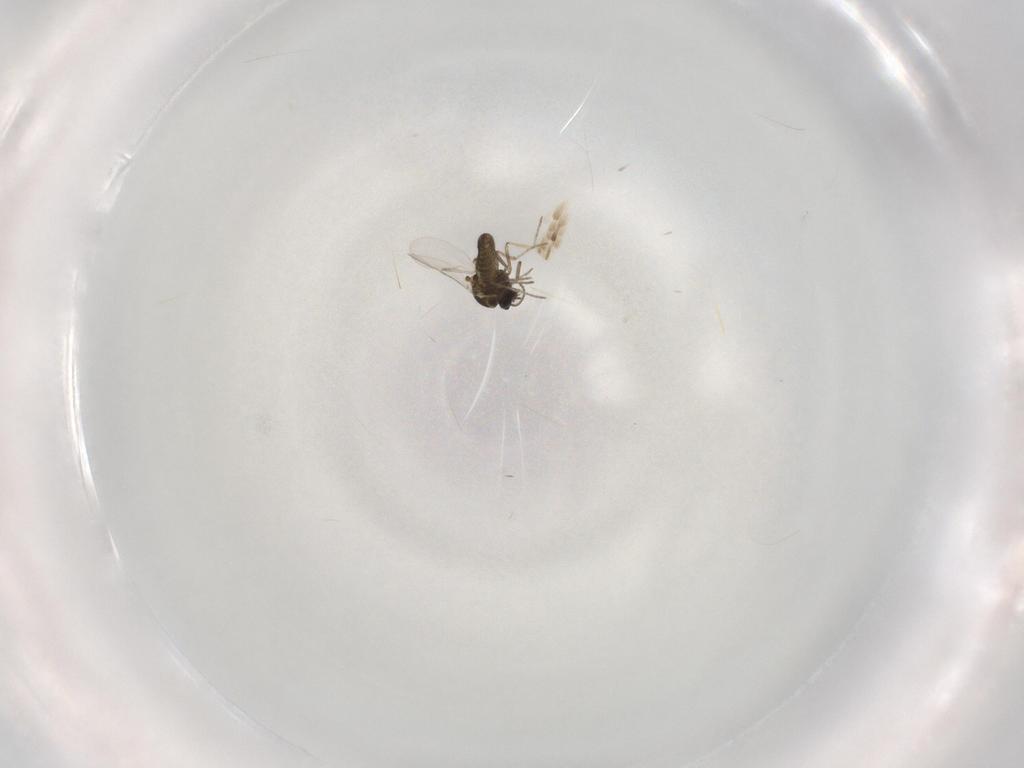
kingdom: Animalia
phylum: Arthropoda
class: Insecta
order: Diptera
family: Ceratopogonidae
